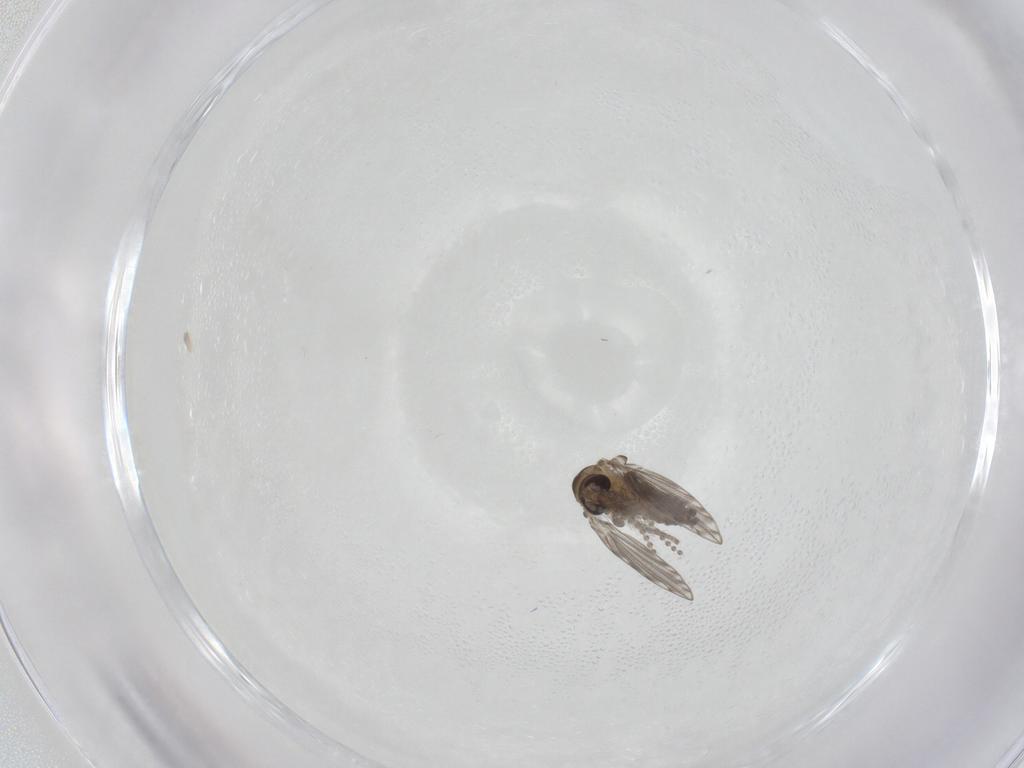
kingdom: Animalia
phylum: Arthropoda
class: Insecta
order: Diptera
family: Psychodidae
